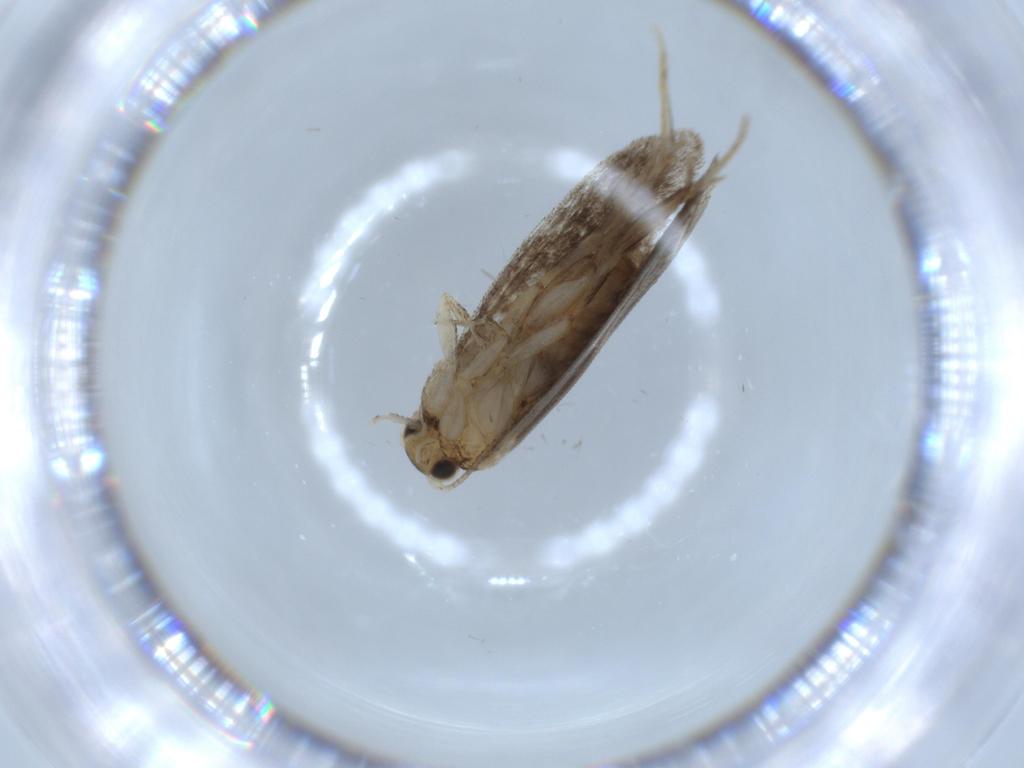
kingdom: Animalia
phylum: Arthropoda
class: Insecta
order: Lepidoptera
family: Tineidae
